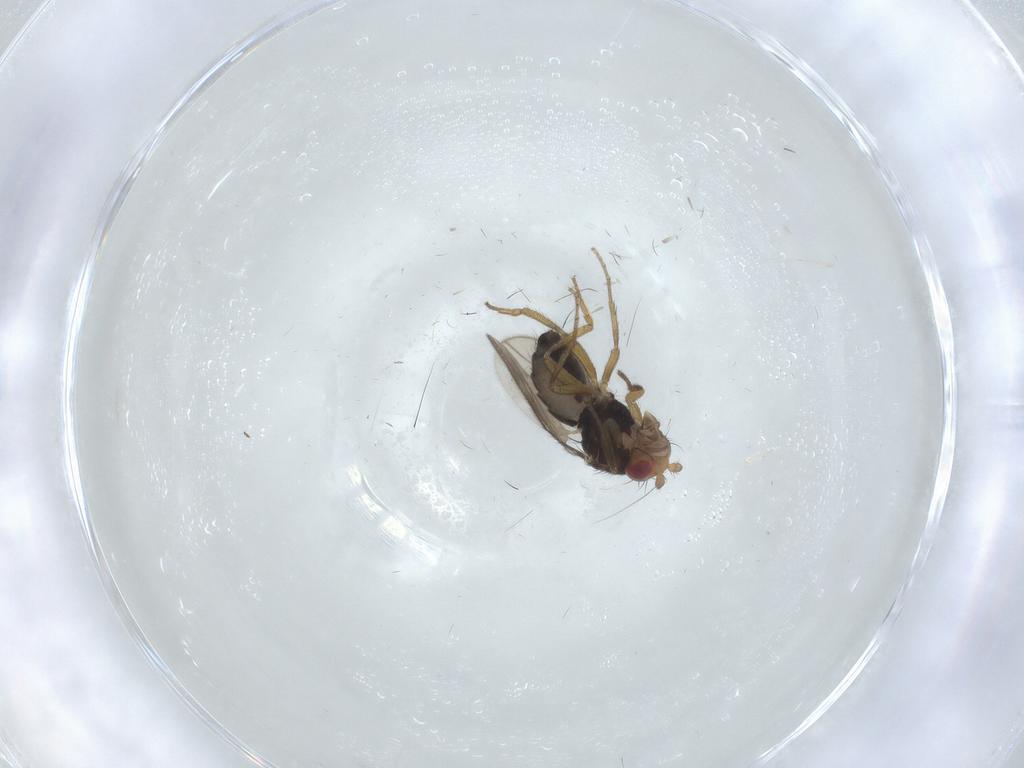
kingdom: Animalia
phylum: Arthropoda
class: Insecta
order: Diptera
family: Sphaeroceridae
